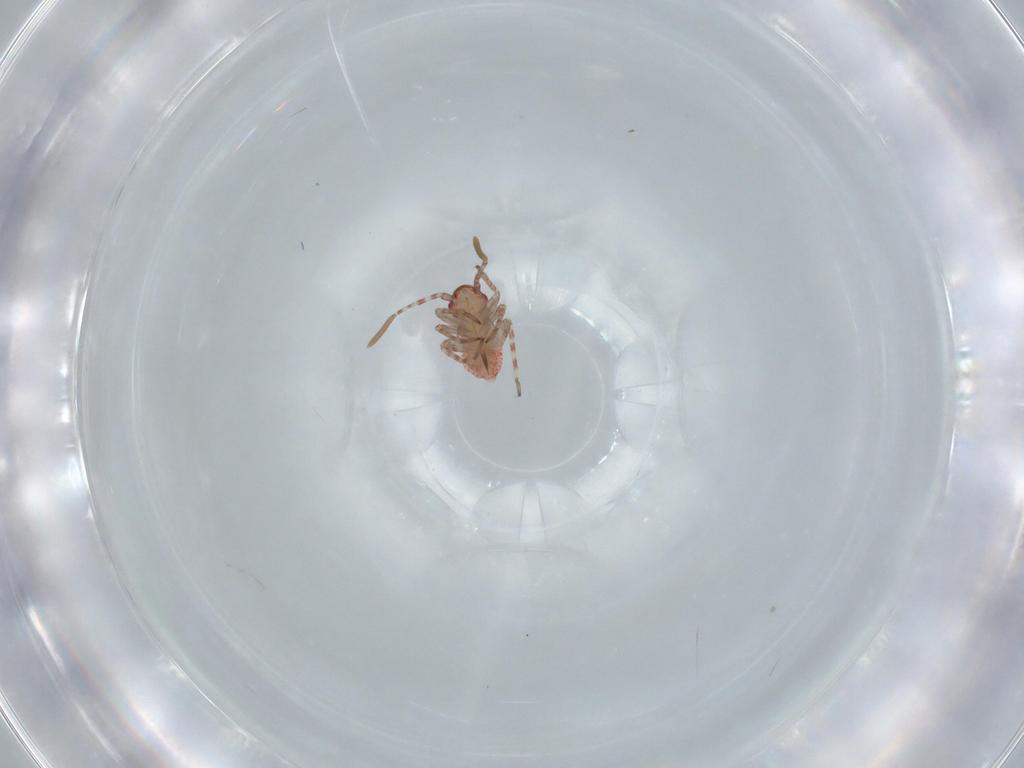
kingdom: Animalia
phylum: Arthropoda
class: Insecta
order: Hemiptera
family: Miridae
